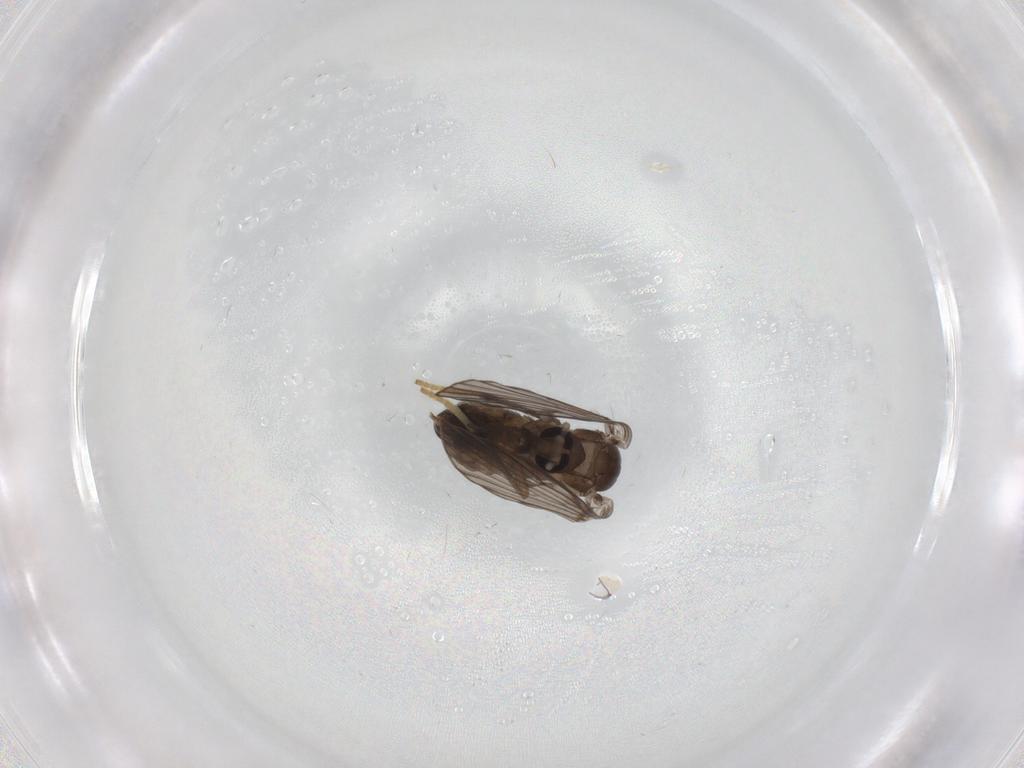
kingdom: Animalia
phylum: Arthropoda
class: Insecta
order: Diptera
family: Psychodidae
